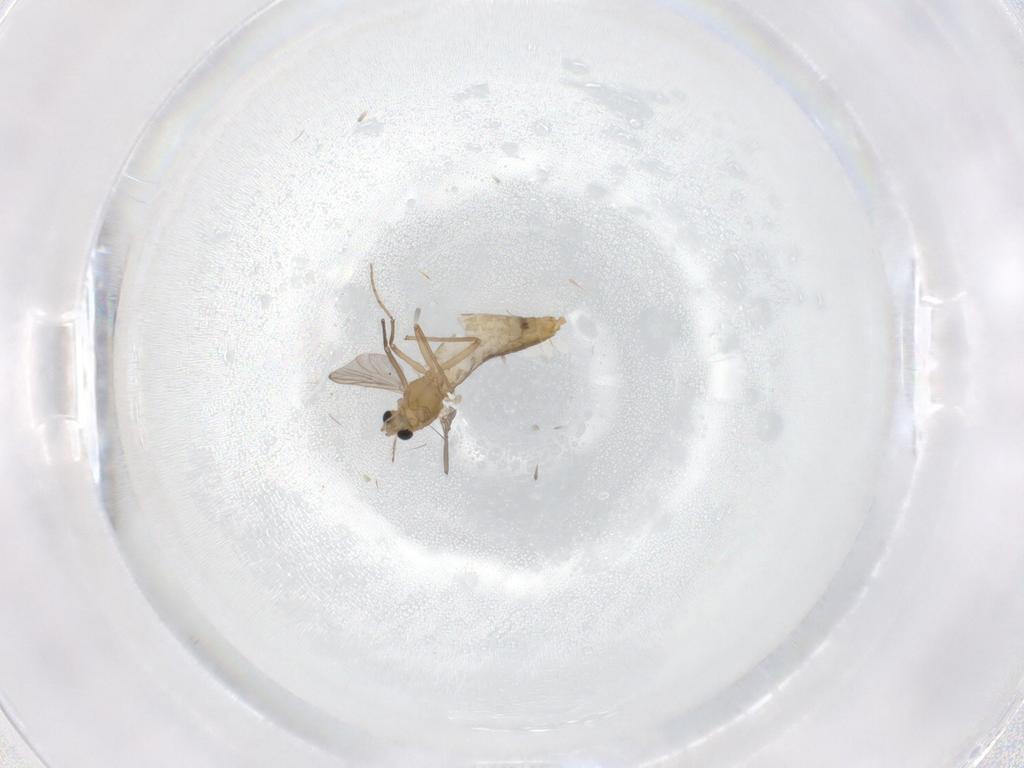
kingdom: Animalia
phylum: Arthropoda
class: Insecta
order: Diptera
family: Chironomidae
